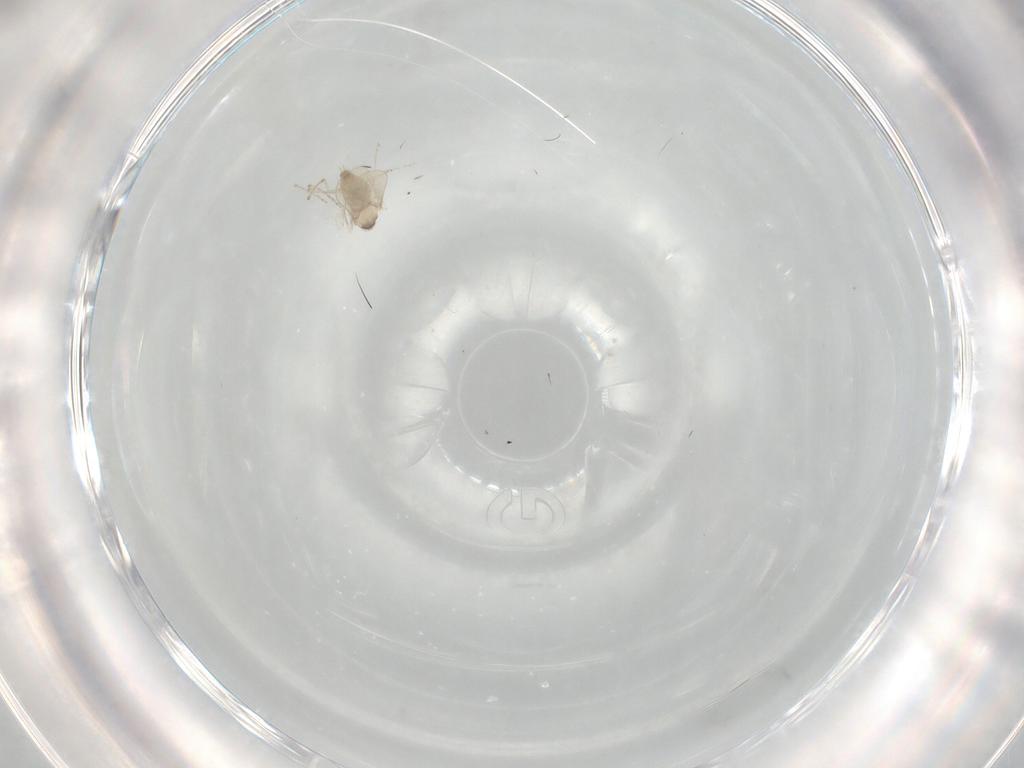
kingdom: Animalia
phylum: Arthropoda
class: Insecta
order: Diptera
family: Cecidomyiidae
